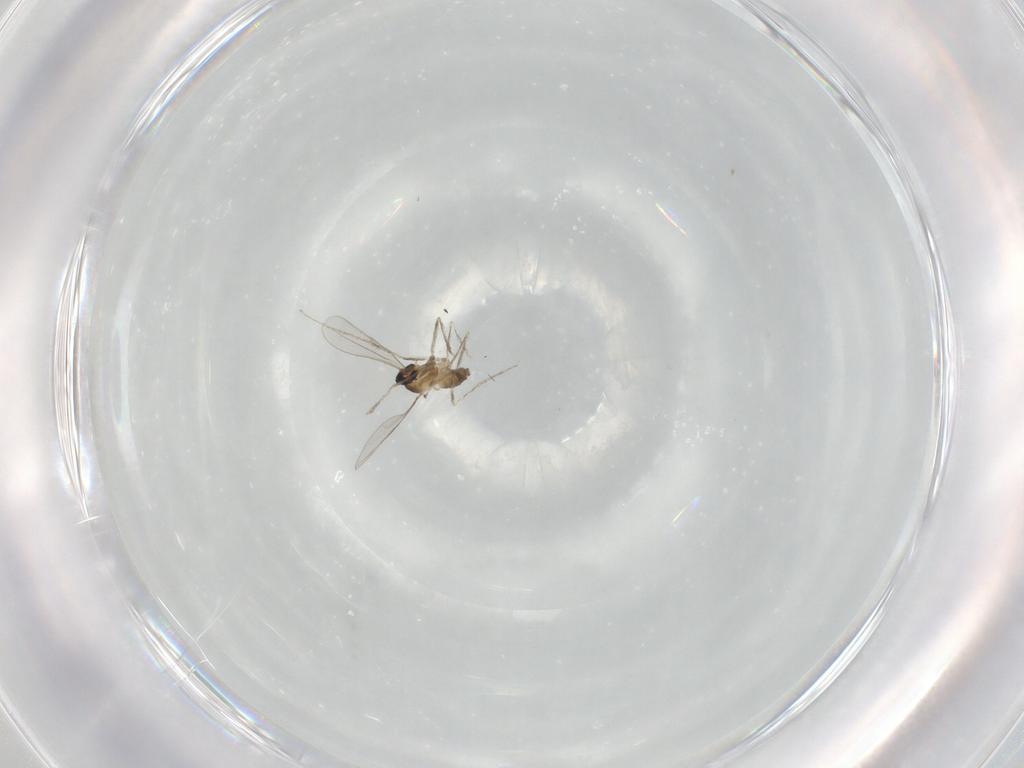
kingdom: Animalia
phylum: Arthropoda
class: Insecta
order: Diptera
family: Cecidomyiidae
